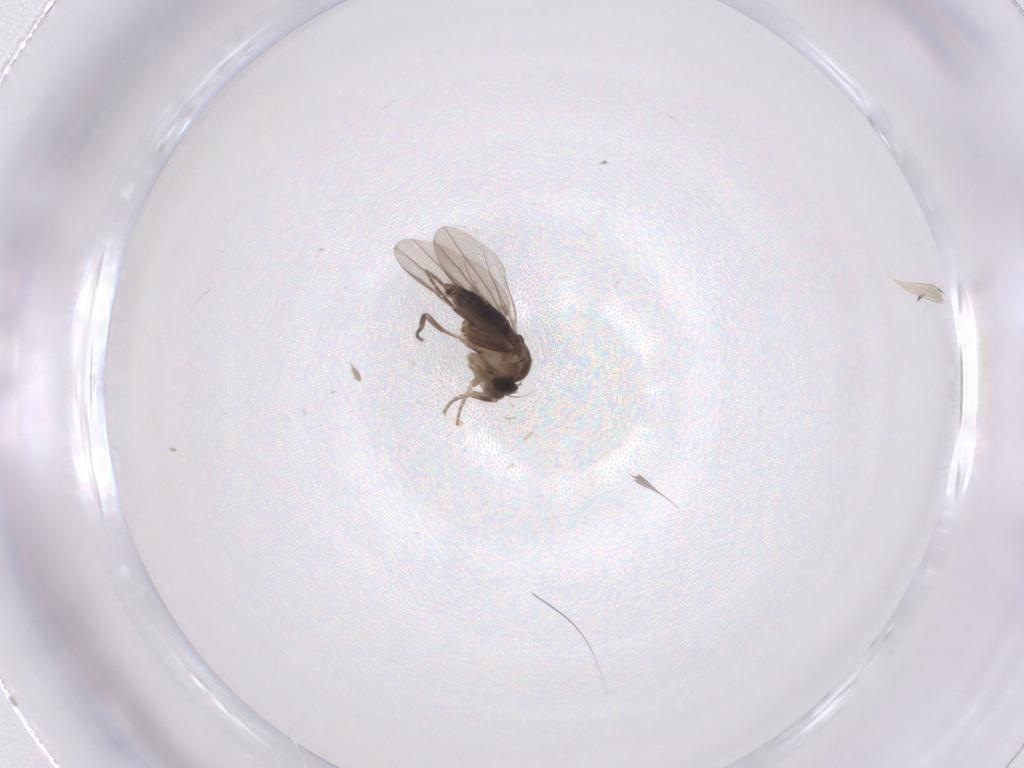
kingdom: Animalia
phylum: Arthropoda
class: Insecta
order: Diptera
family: Phoridae
